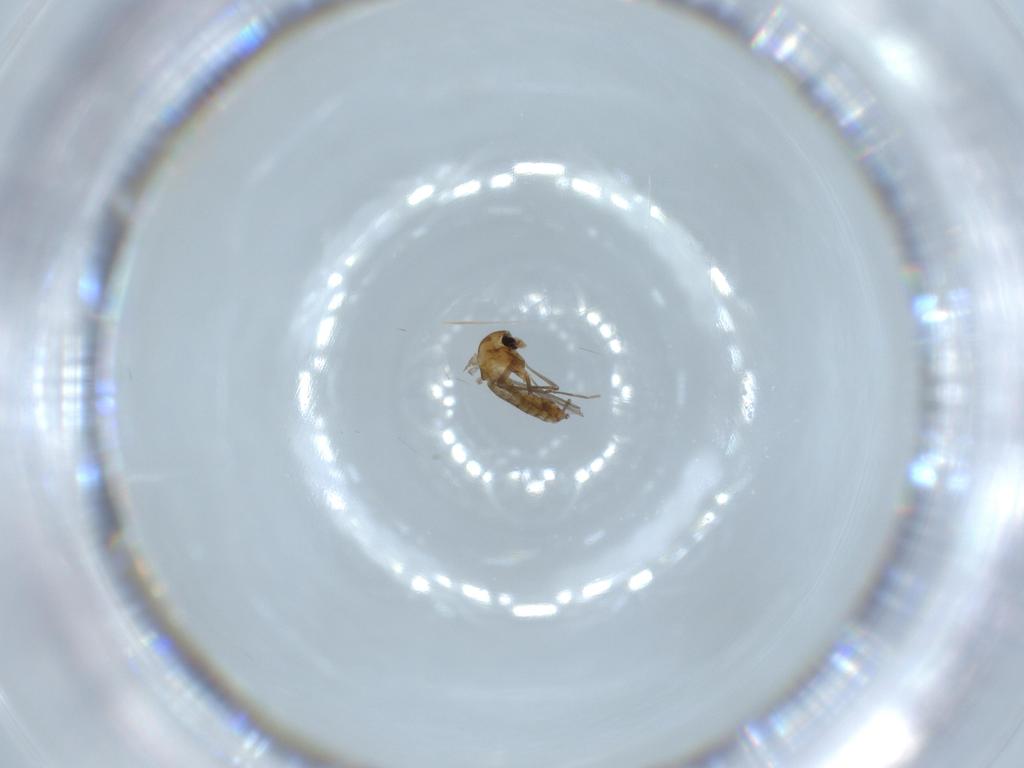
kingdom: Animalia
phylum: Arthropoda
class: Insecta
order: Diptera
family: Chironomidae
